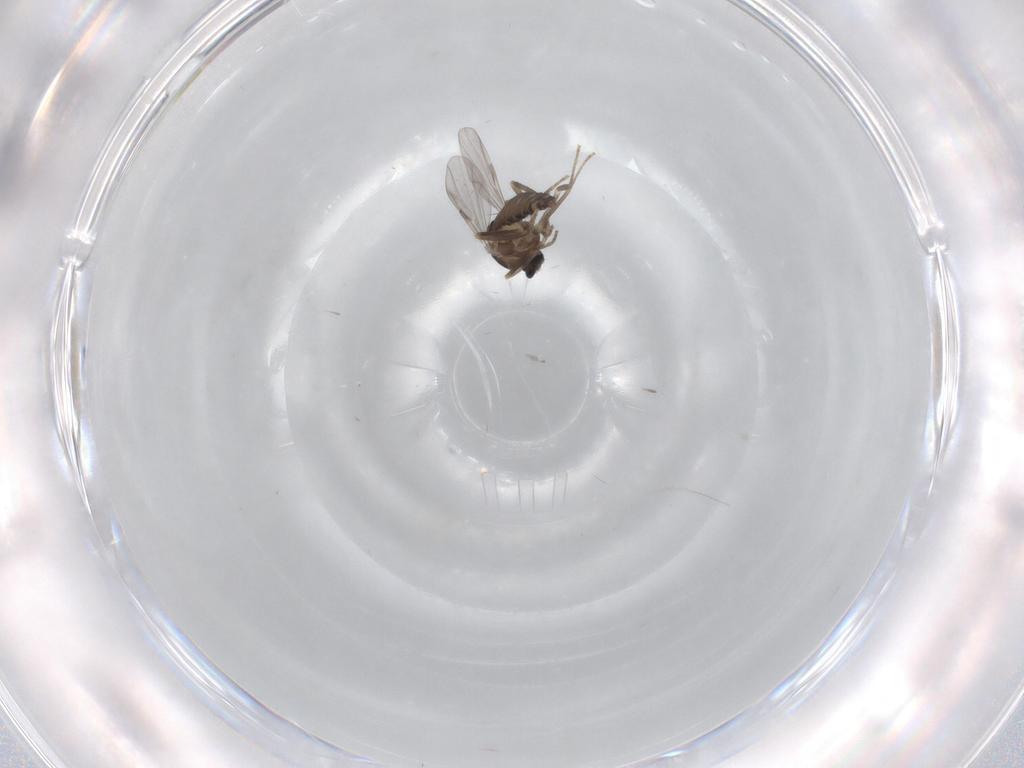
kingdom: Animalia
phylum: Arthropoda
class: Insecta
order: Diptera
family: Ceratopogonidae
